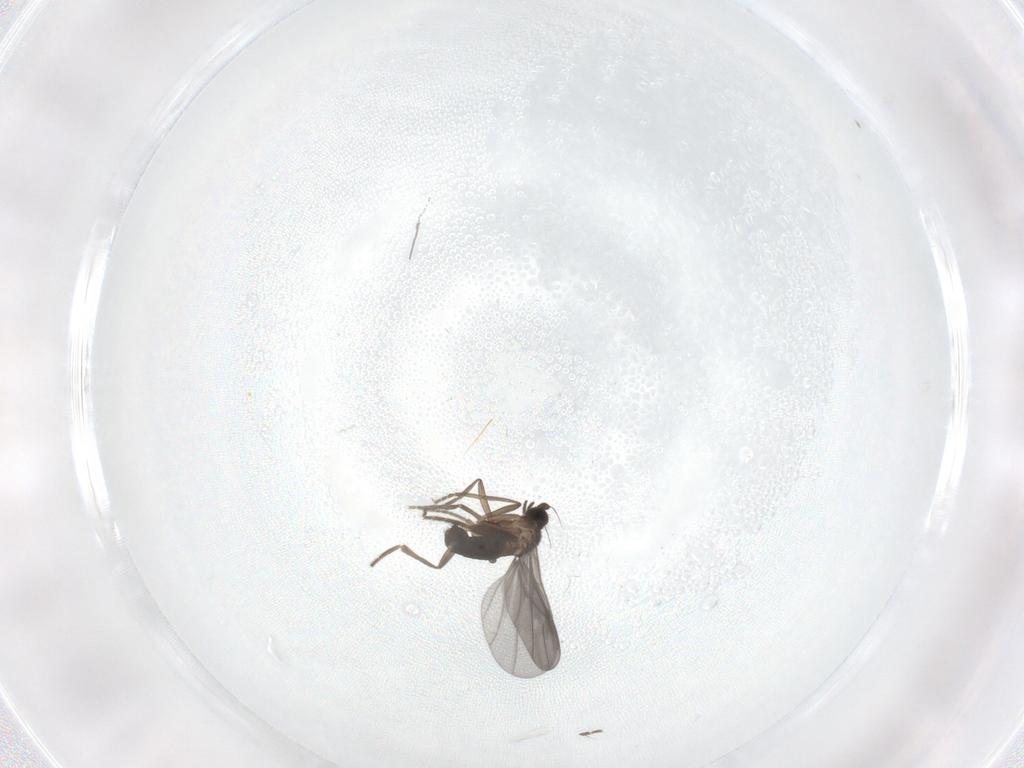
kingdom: Animalia
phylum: Arthropoda
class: Insecta
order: Diptera
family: Phoridae
